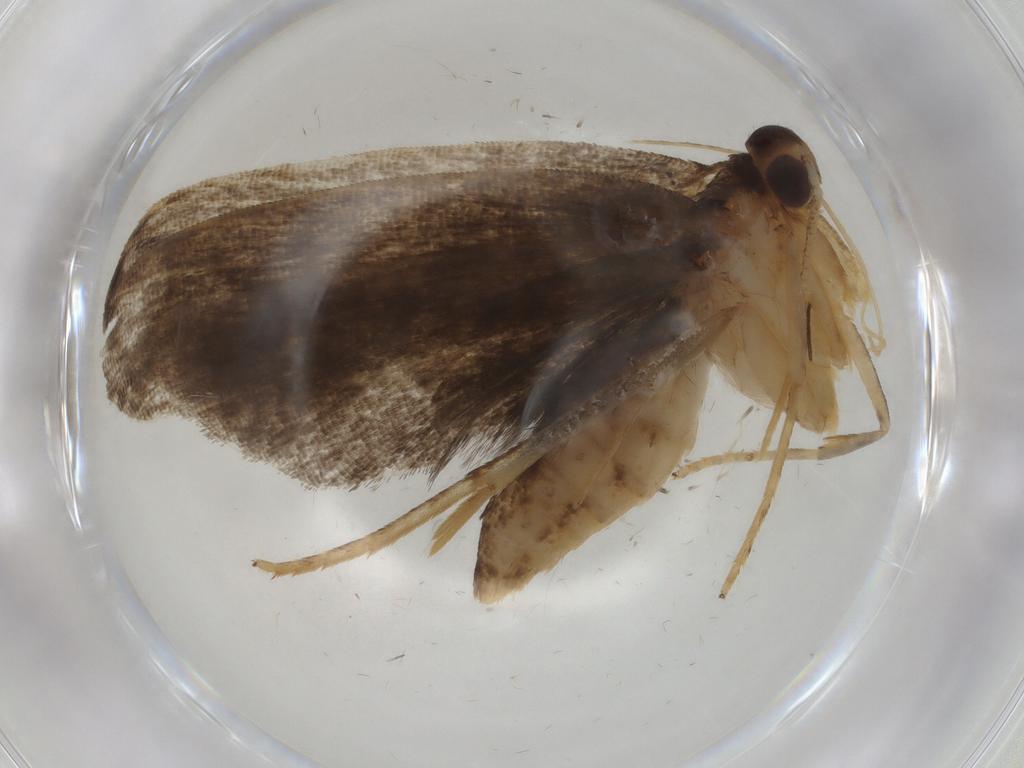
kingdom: Animalia
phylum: Arthropoda
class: Insecta
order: Lepidoptera
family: Gelechiidae
